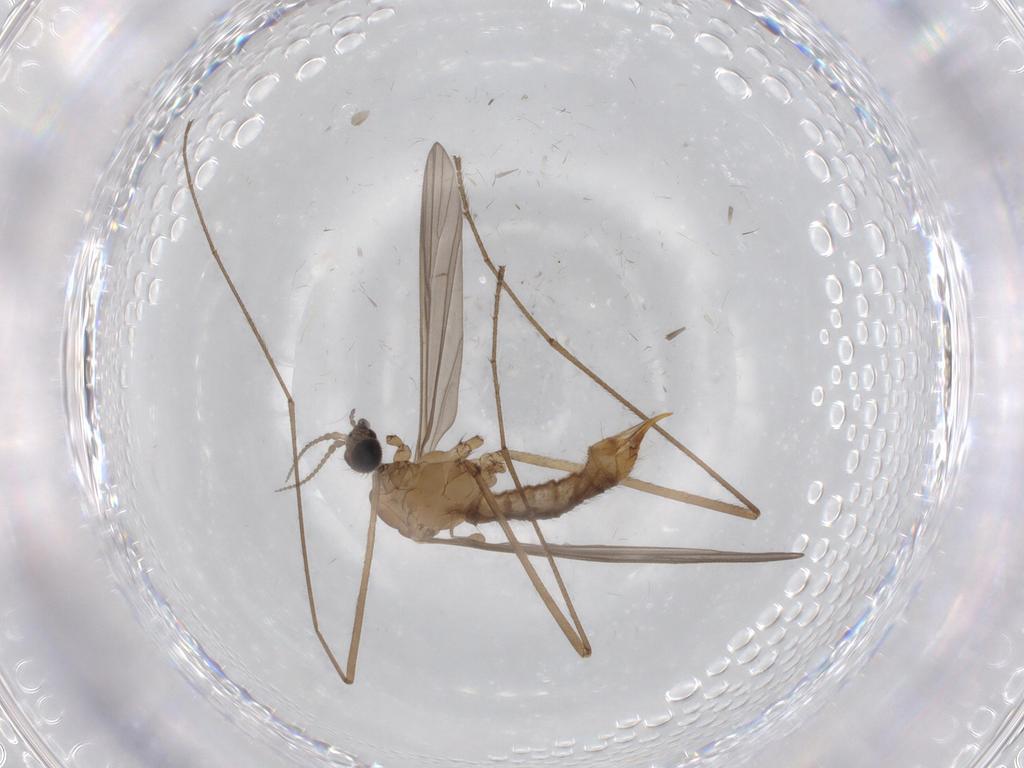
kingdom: Animalia
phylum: Arthropoda
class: Insecta
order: Diptera
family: Limoniidae
